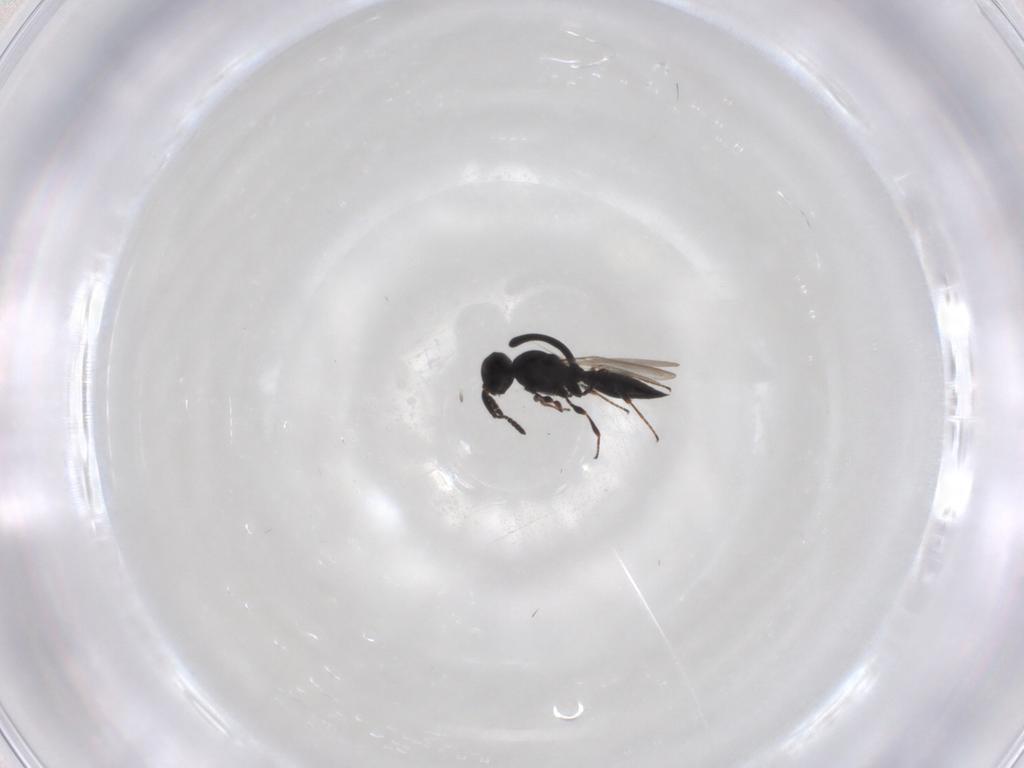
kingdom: Animalia
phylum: Arthropoda
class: Insecta
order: Hymenoptera
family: Platygastridae
